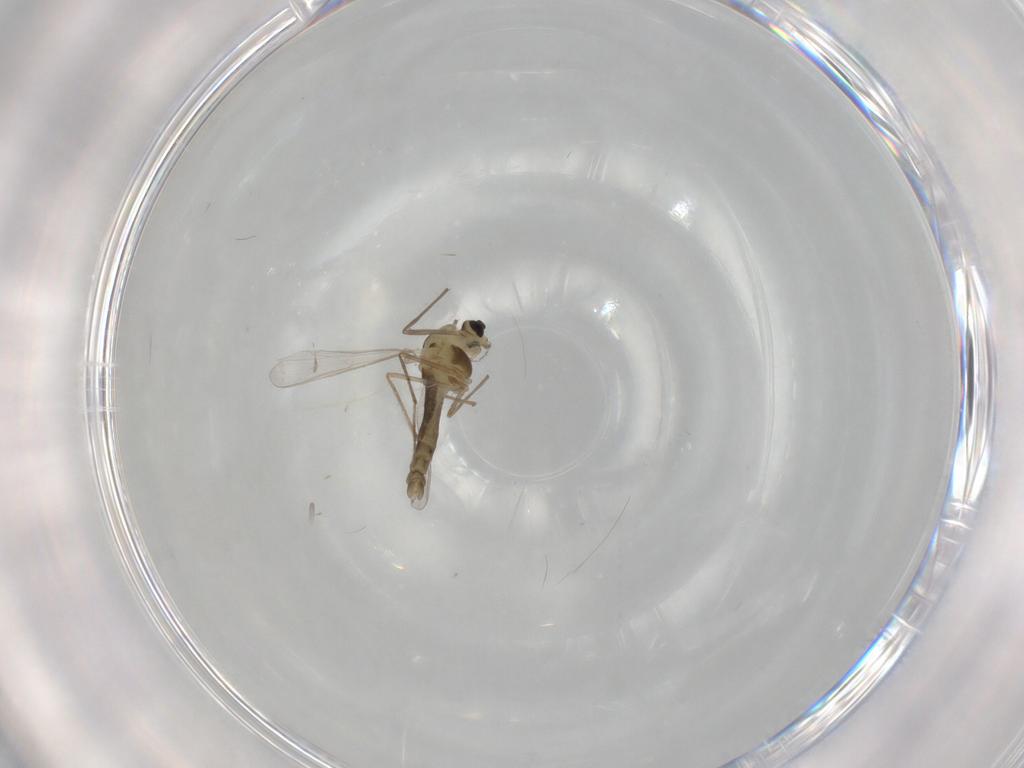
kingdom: Animalia
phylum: Arthropoda
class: Insecta
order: Diptera
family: Chironomidae
